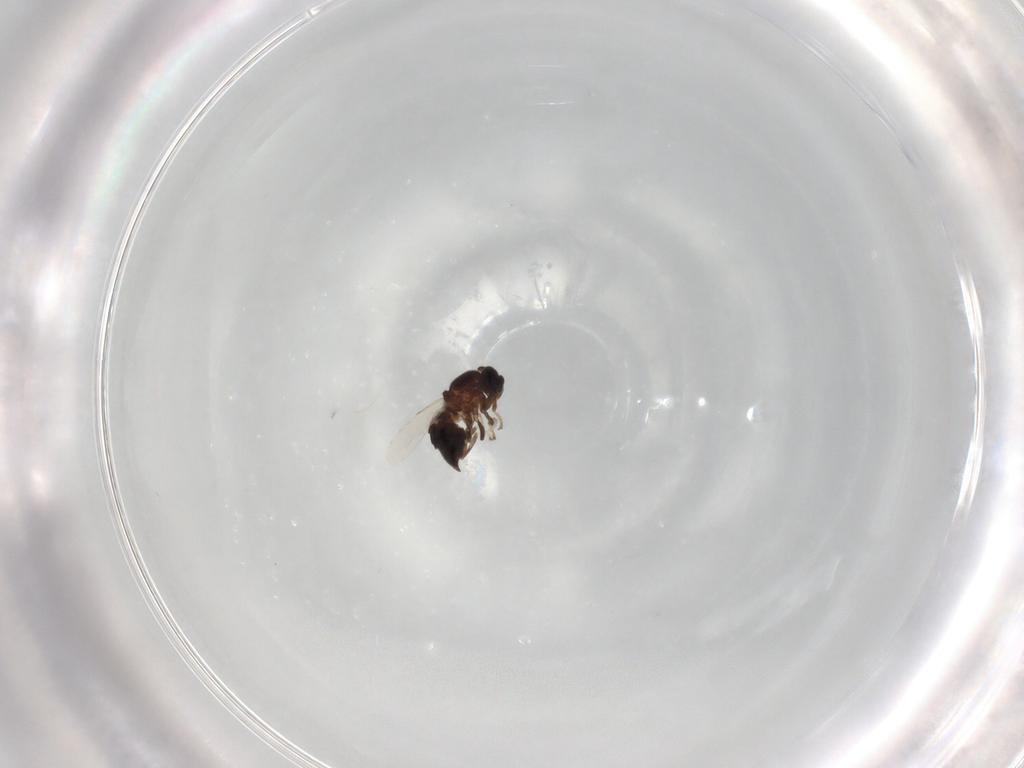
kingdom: Animalia
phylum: Arthropoda
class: Insecta
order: Diptera
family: Scatopsidae
